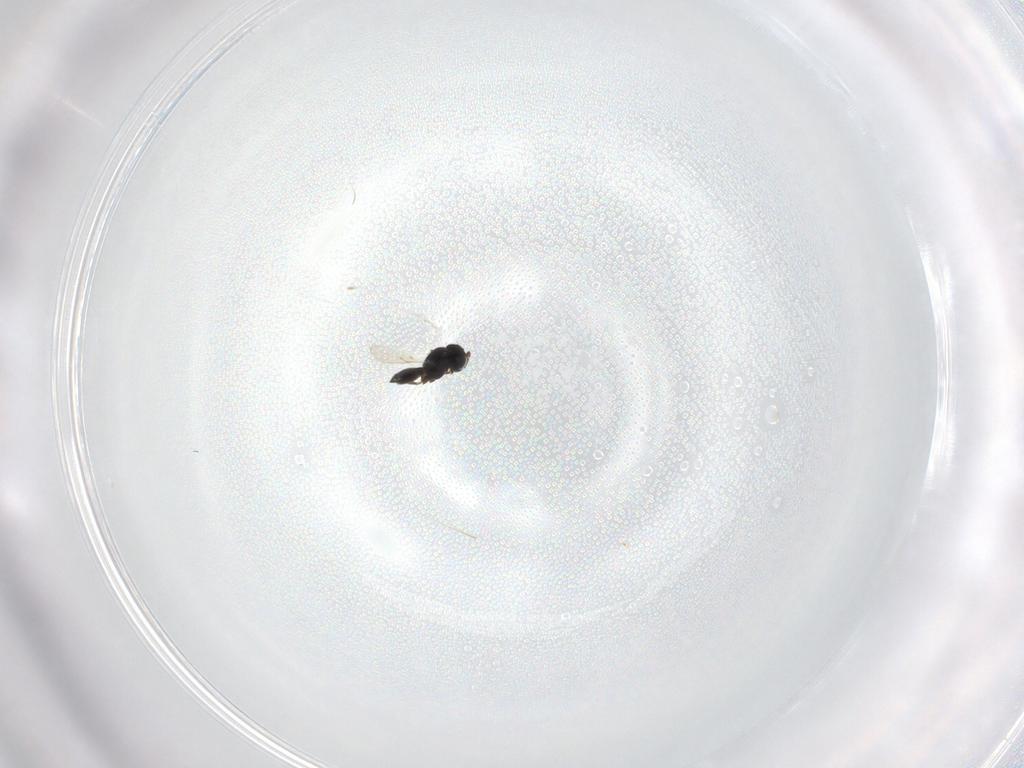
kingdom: Animalia
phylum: Arthropoda
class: Insecta
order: Hymenoptera
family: Scelionidae
